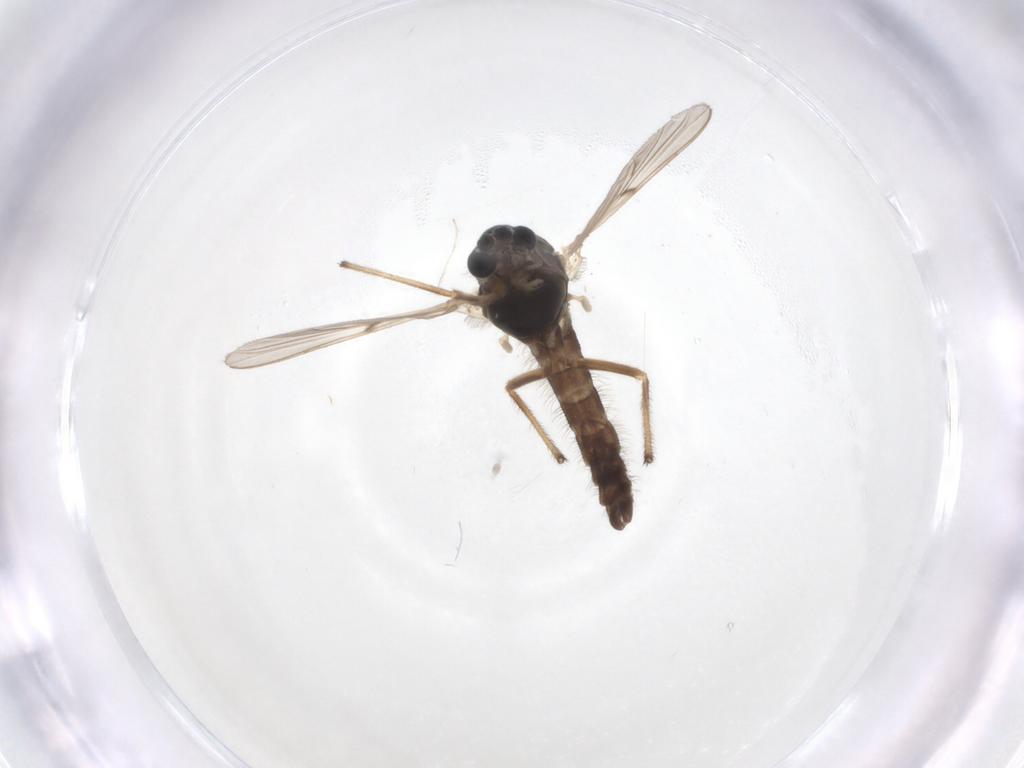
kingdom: Animalia
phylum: Arthropoda
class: Insecta
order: Diptera
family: Chironomidae
